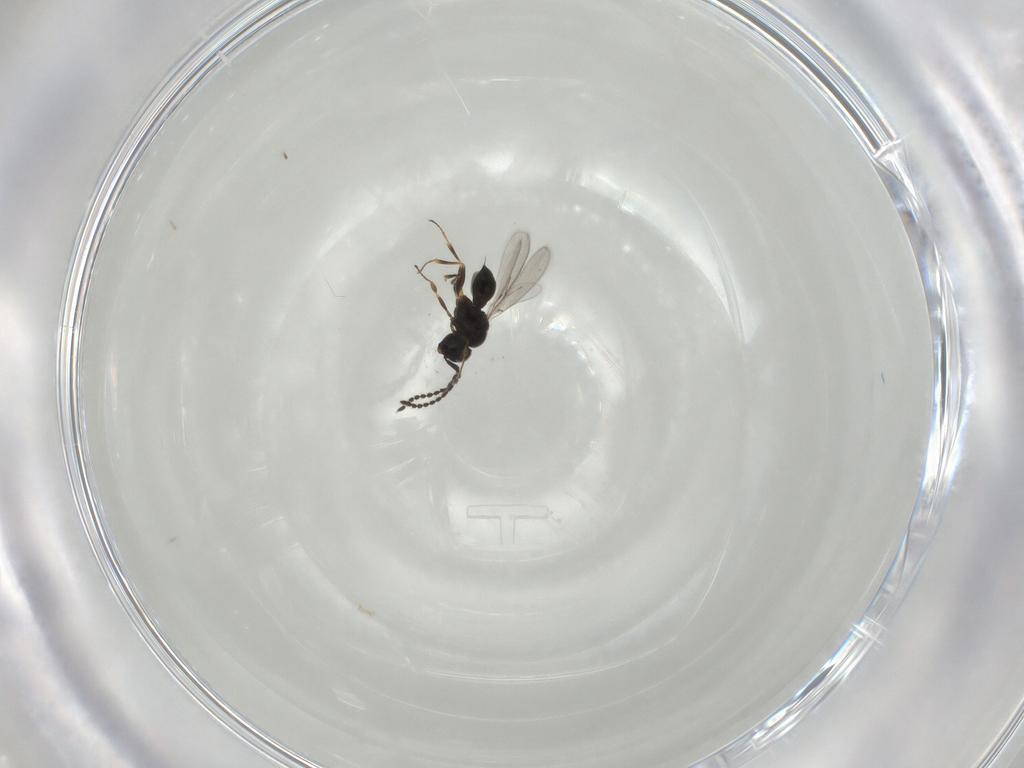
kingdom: Animalia
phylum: Arthropoda
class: Insecta
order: Hymenoptera
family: Scelionidae
